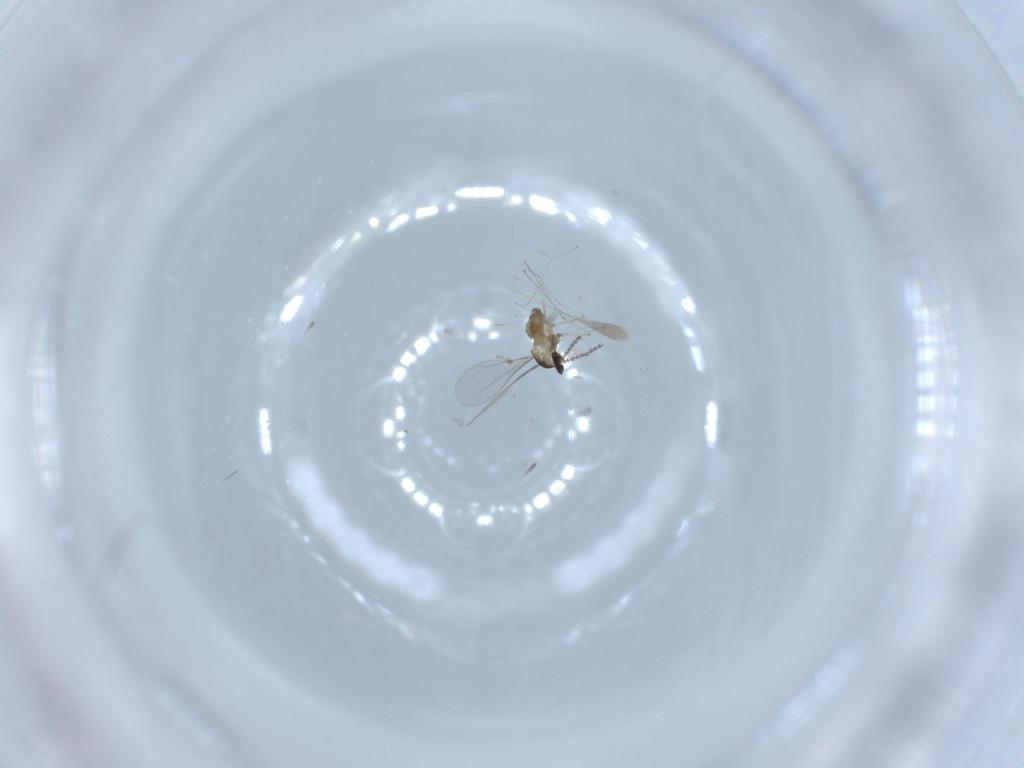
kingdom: Animalia
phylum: Arthropoda
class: Insecta
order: Diptera
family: Cecidomyiidae
